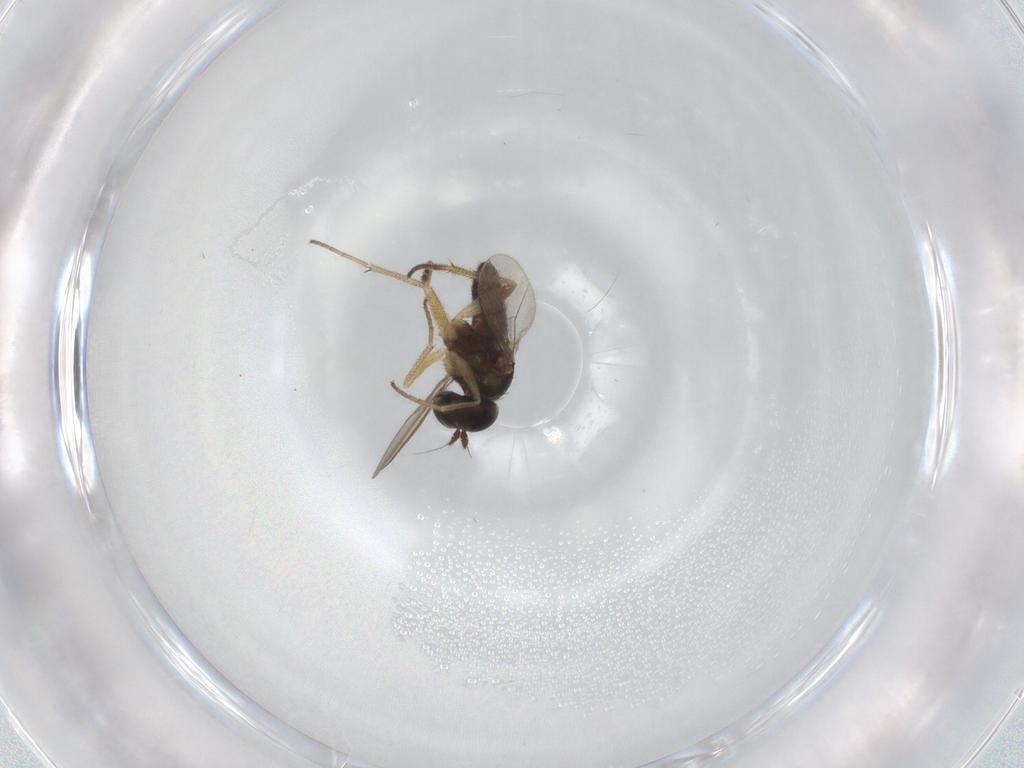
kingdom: Animalia
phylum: Arthropoda
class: Insecta
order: Diptera
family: Dolichopodidae
